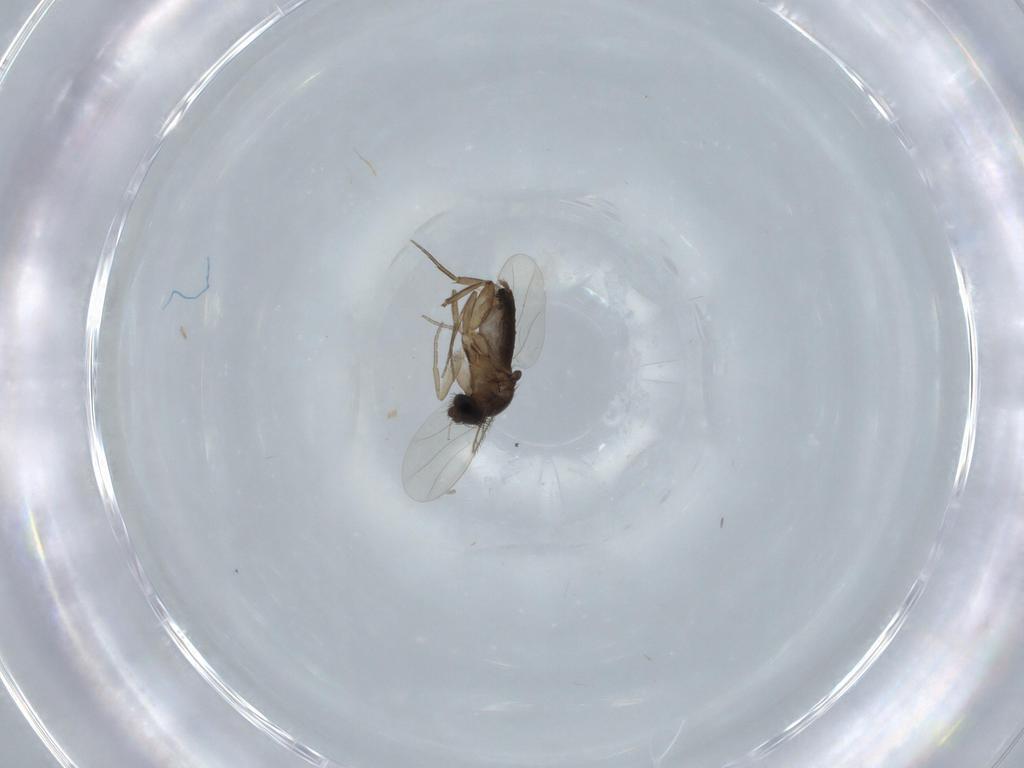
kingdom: Animalia
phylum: Arthropoda
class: Insecta
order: Diptera
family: Phoridae
